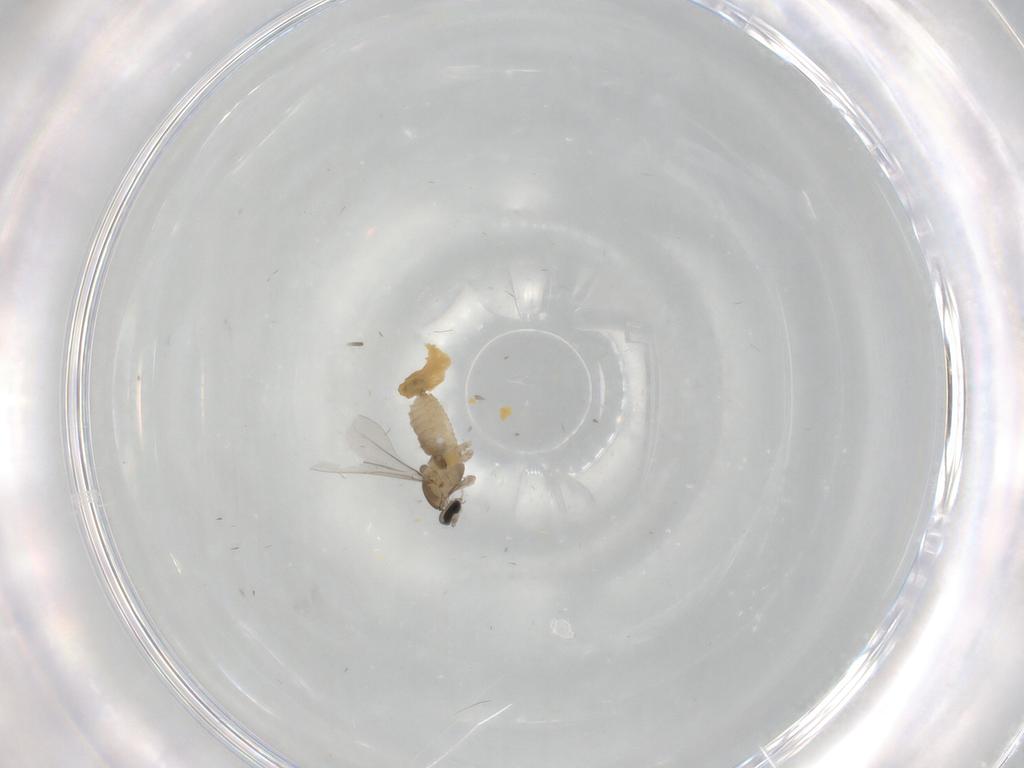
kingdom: Animalia
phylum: Arthropoda
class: Insecta
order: Diptera
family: Cecidomyiidae
